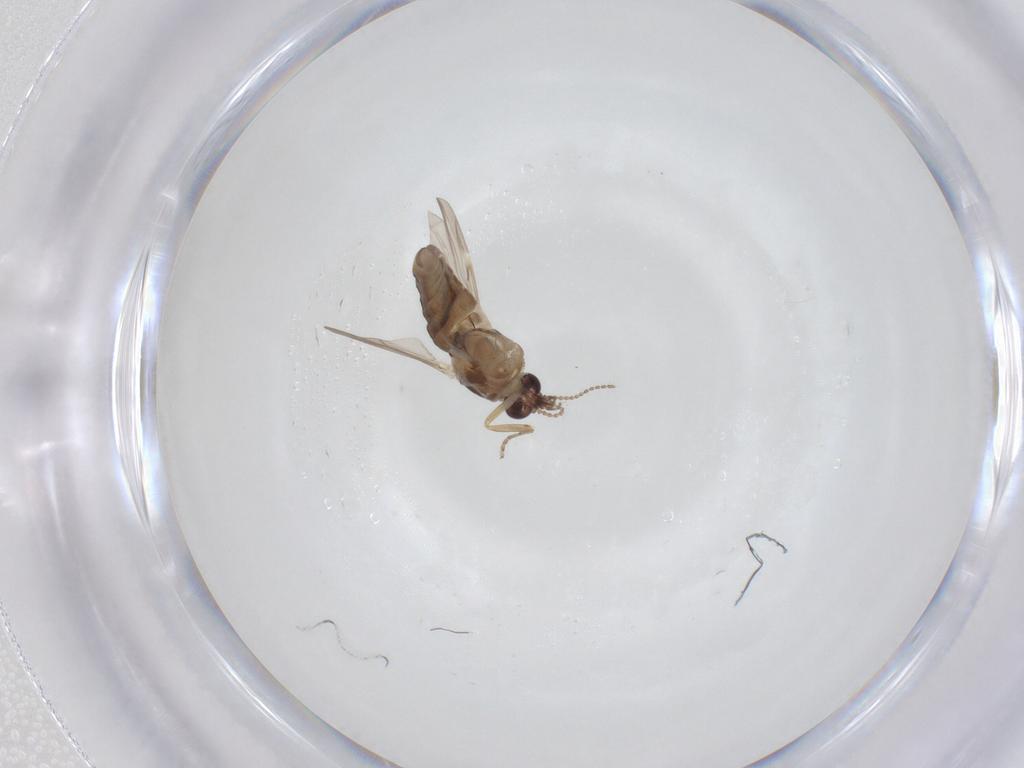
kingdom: Animalia
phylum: Arthropoda
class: Insecta
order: Diptera
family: Ceratopogonidae
